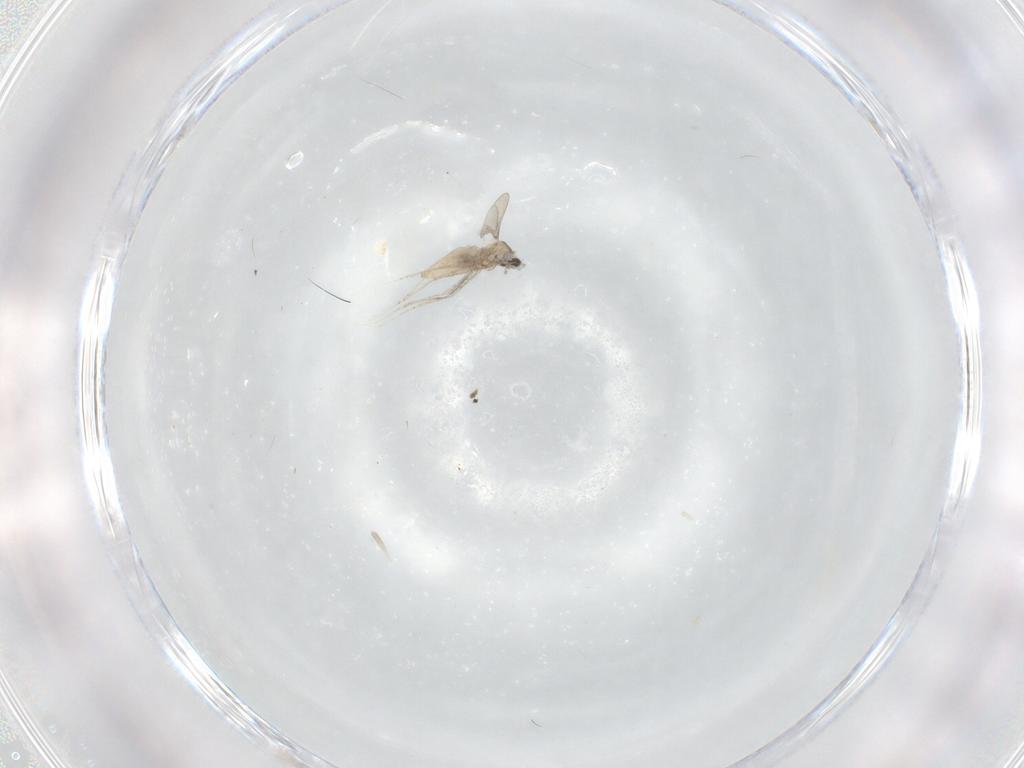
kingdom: Animalia
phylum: Arthropoda
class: Insecta
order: Diptera
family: Cecidomyiidae
